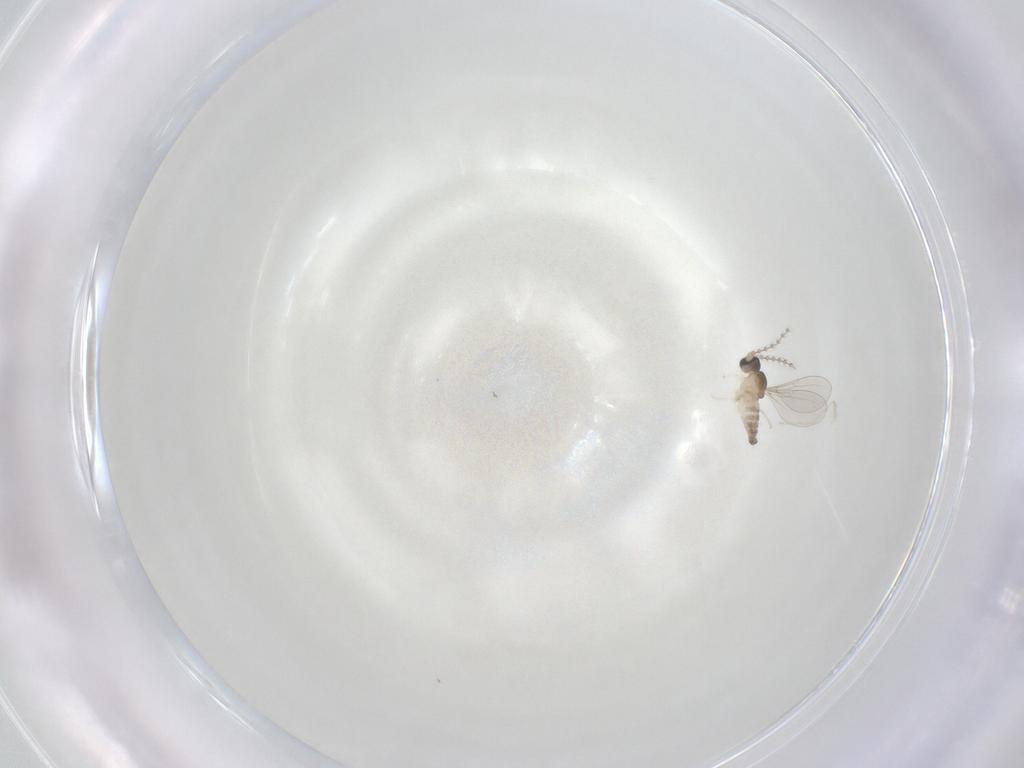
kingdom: Animalia
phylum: Arthropoda
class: Insecta
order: Diptera
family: Cecidomyiidae
